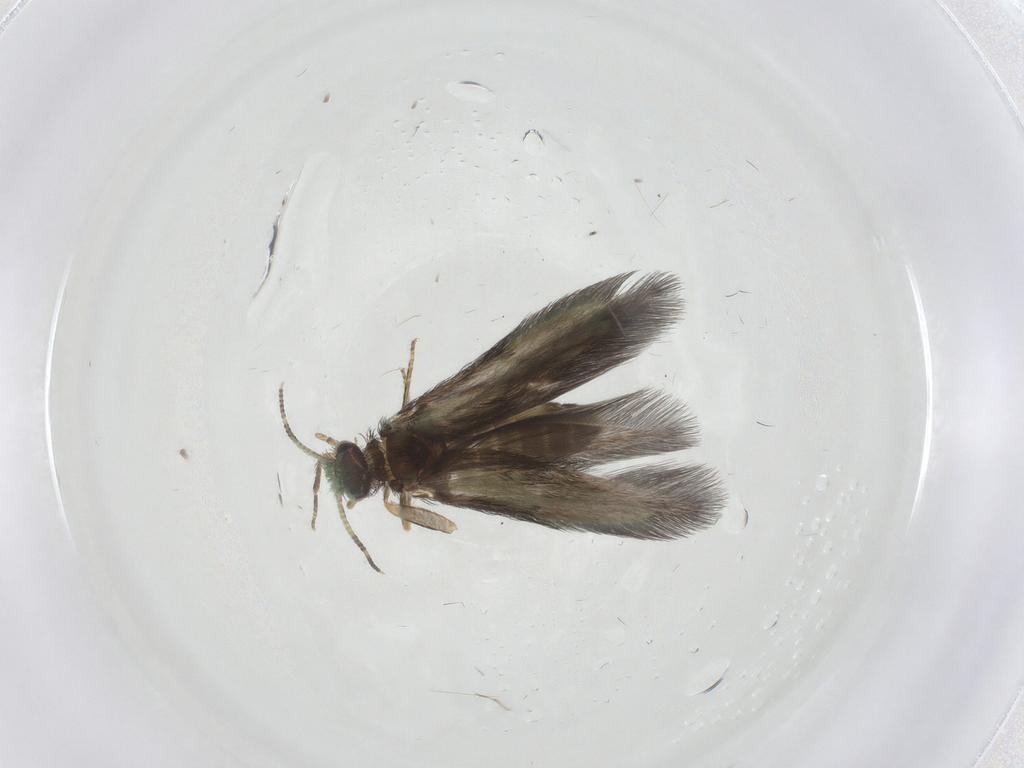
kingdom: Animalia
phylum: Arthropoda
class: Insecta
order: Trichoptera
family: Hydroptilidae
